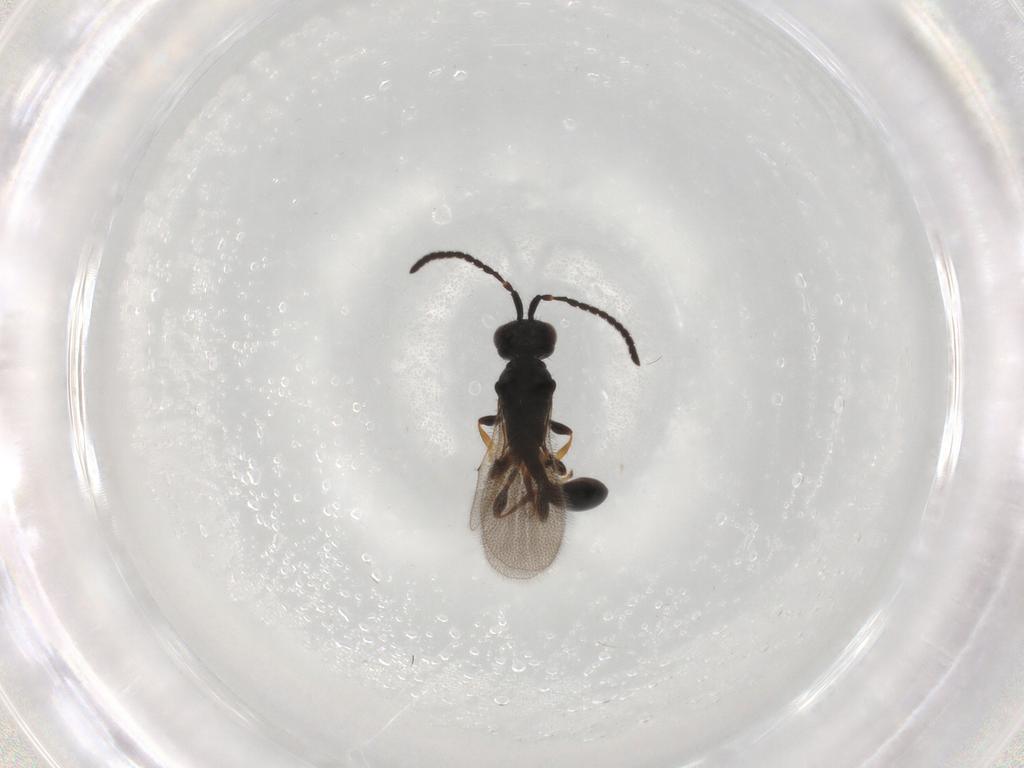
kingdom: Animalia
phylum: Arthropoda
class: Insecta
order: Hymenoptera
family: Diapriidae
